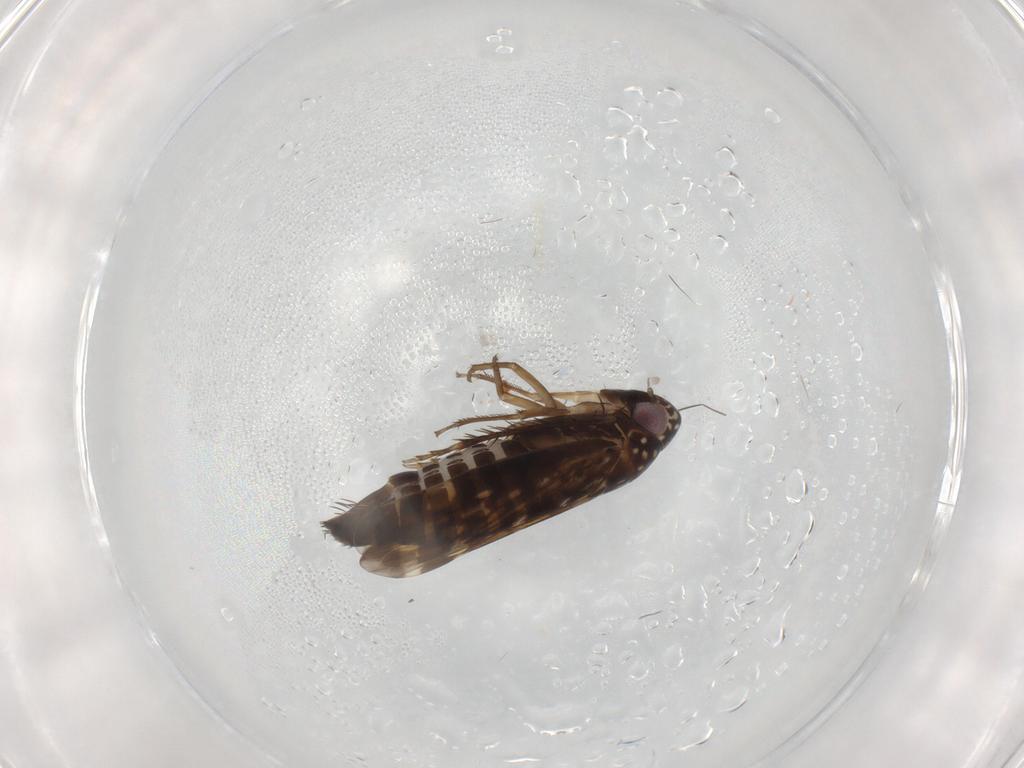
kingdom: Animalia
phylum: Arthropoda
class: Insecta
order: Hemiptera
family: Cicadellidae
